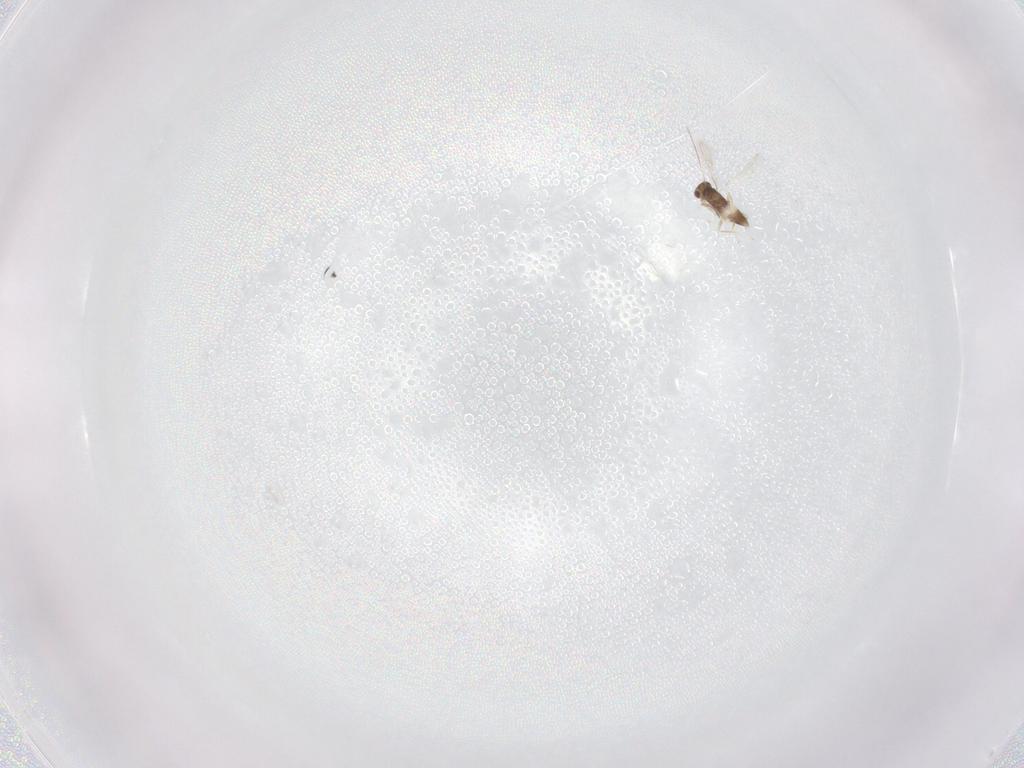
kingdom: Animalia
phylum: Arthropoda
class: Insecta
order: Hymenoptera
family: Mymaridae
